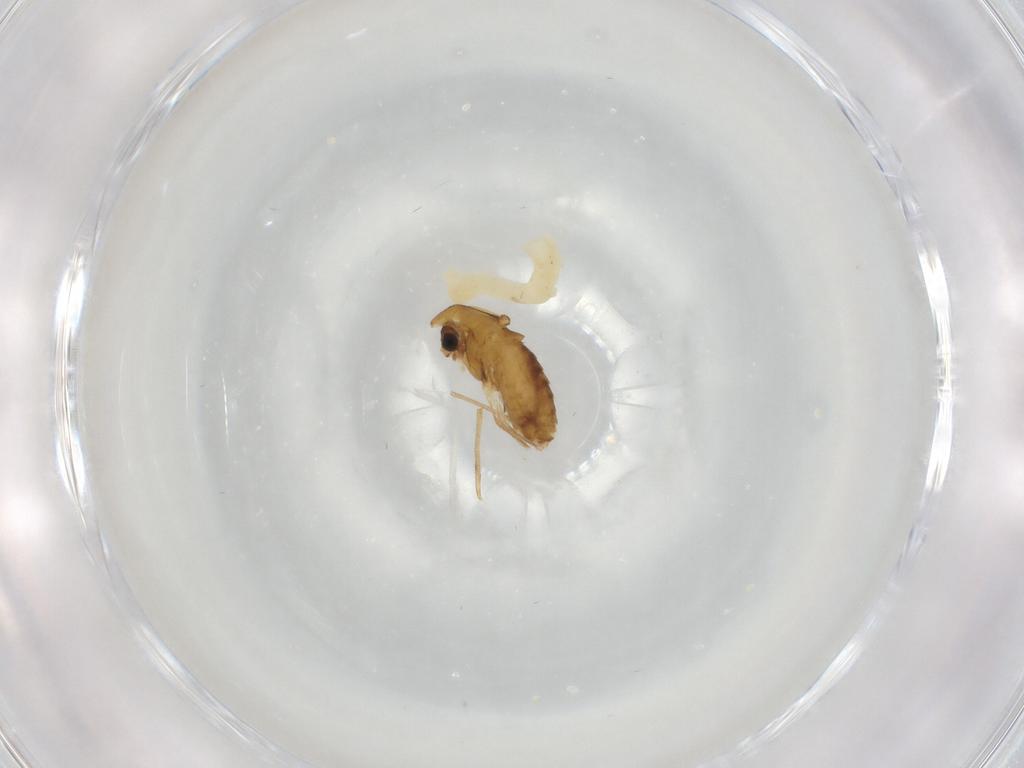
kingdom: Animalia
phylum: Arthropoda
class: Insecta
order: Diptera
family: Chironomidae
